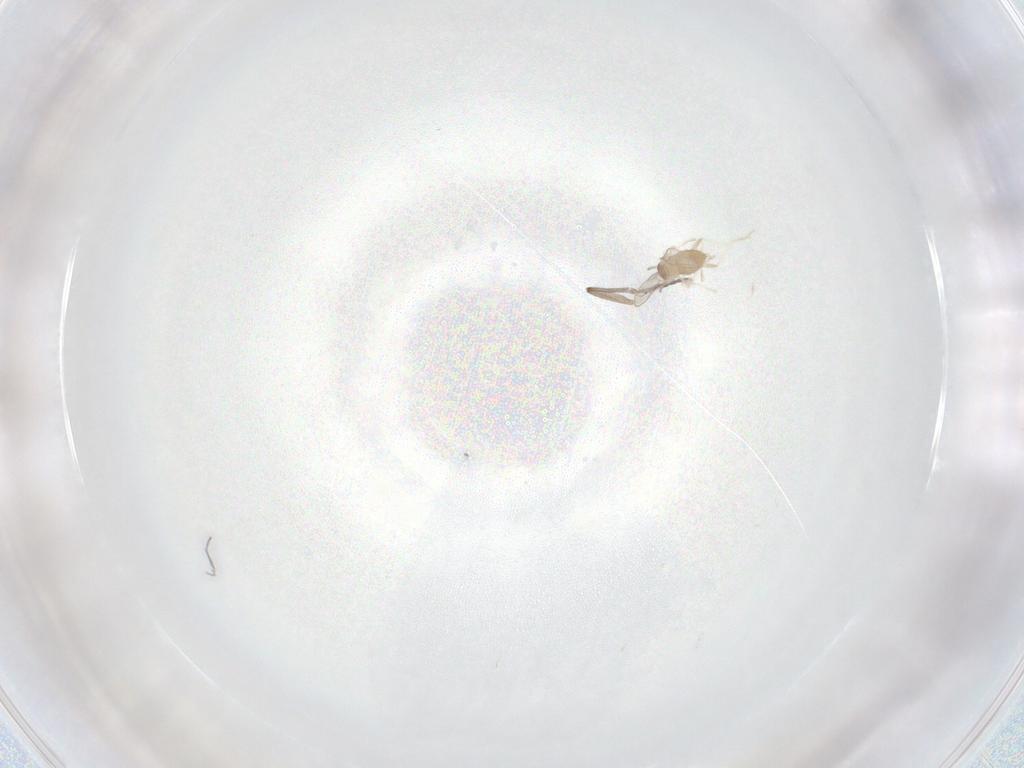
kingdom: Animalia
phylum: Arthropoda
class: Insecta
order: Diptera
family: Cecidomyiidae
